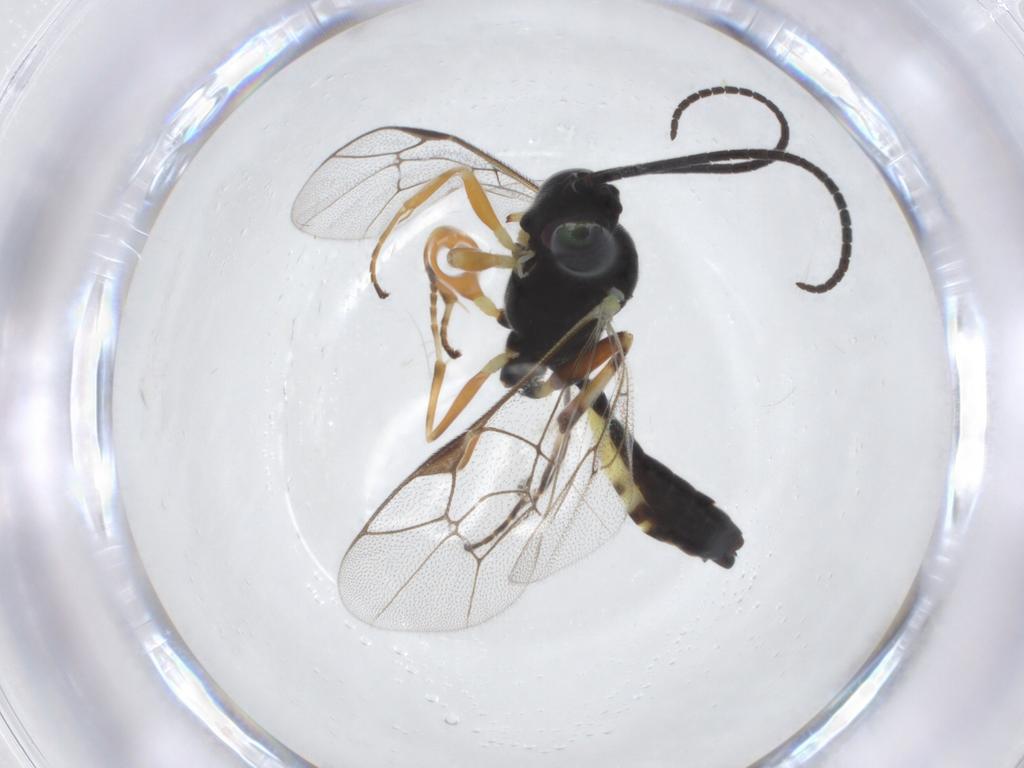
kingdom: Animalia
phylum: Arthropoda
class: Insecta
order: Hymenoptera
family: Ichneumonidae
